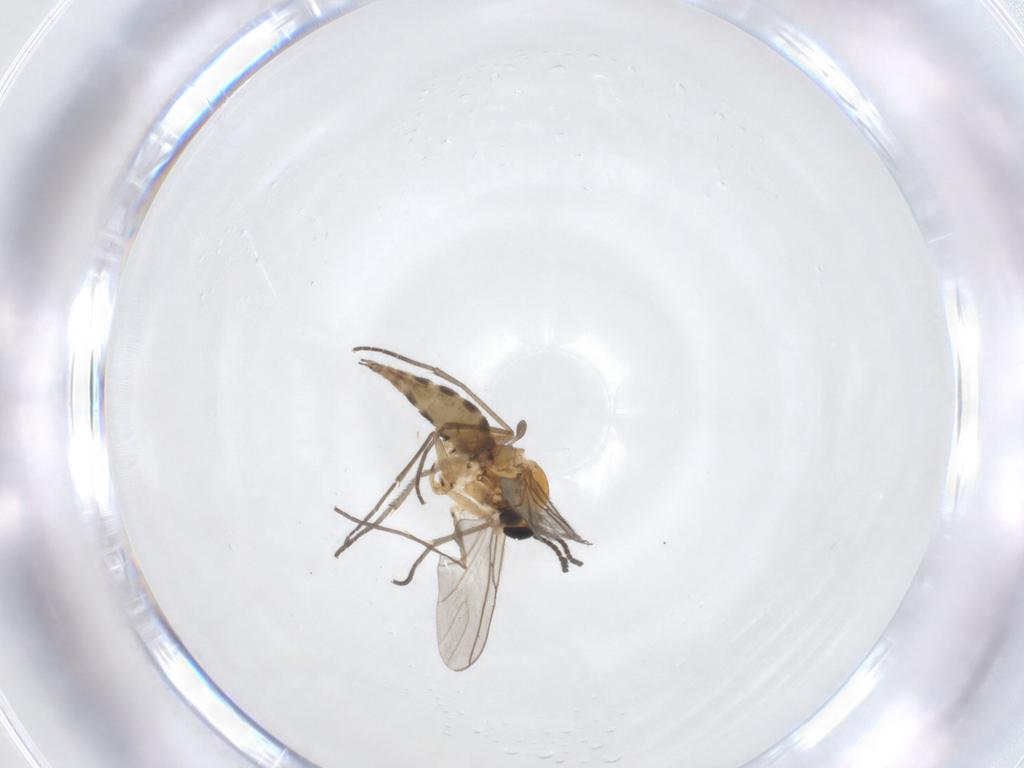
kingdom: Animalia
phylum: Arthropoda
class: Insecta
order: Diptera
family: Sciaridae
